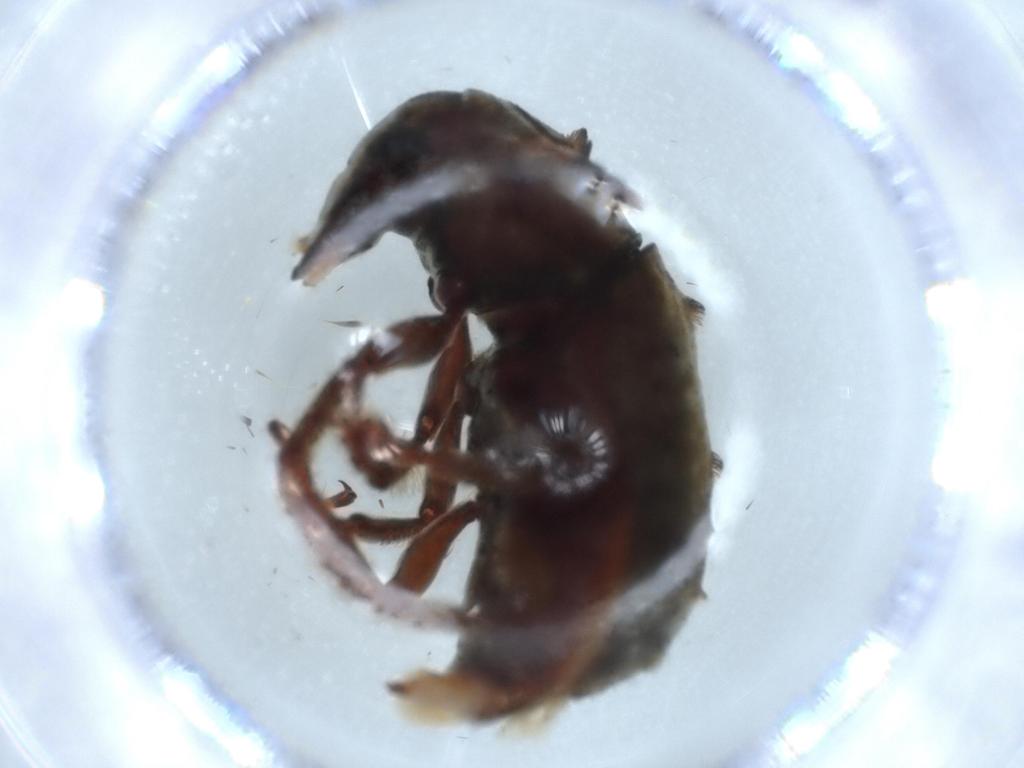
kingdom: Animalia
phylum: Arthropoda
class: Insecta
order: Coleoptera
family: Anthribidae
